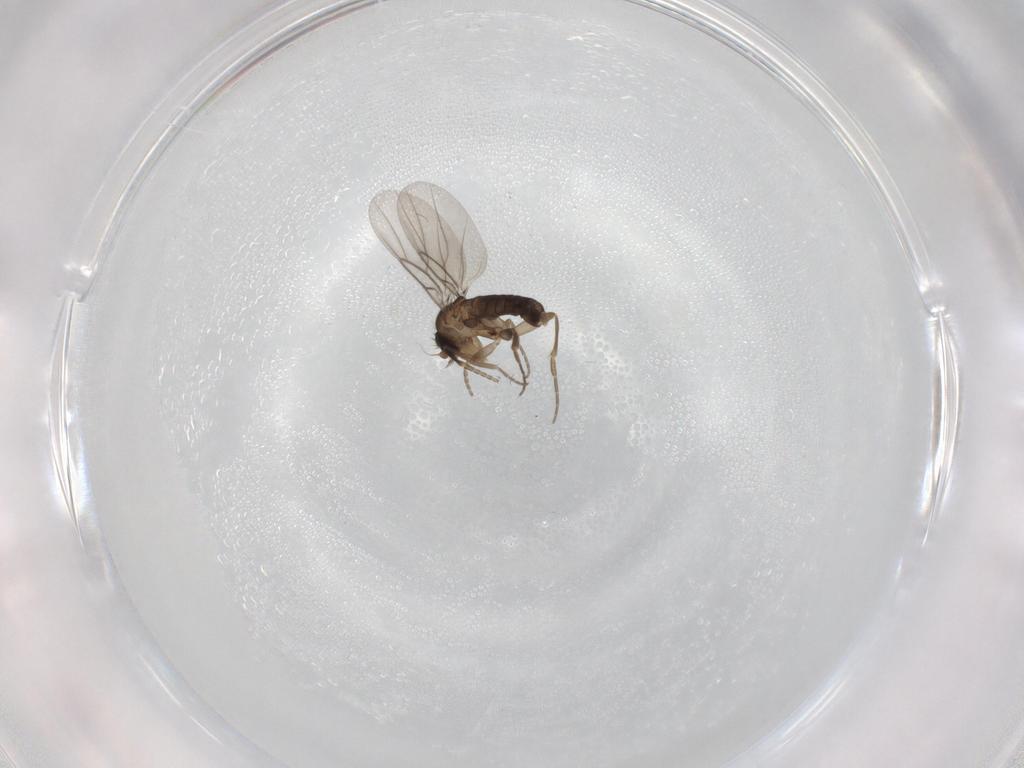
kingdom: Animalia
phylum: Arthropoda
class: Insecta
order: Diptera
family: Phoridae
